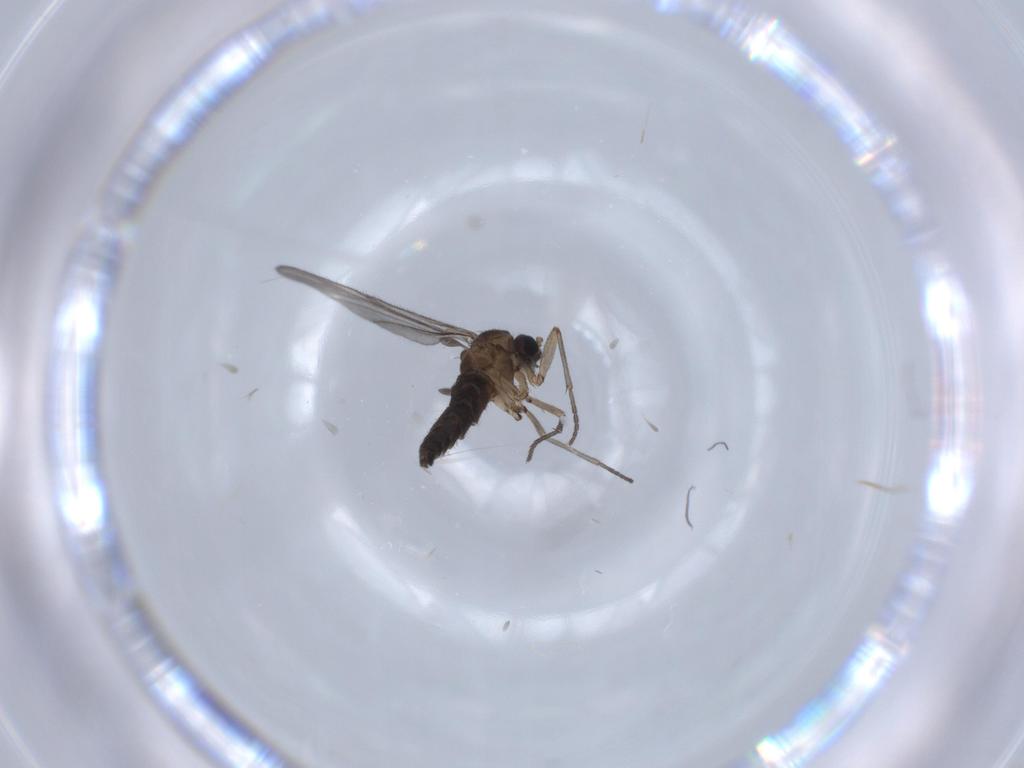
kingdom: Animalia
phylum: Arthropoda
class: Insecta
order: Diptera
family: Sciaridae
